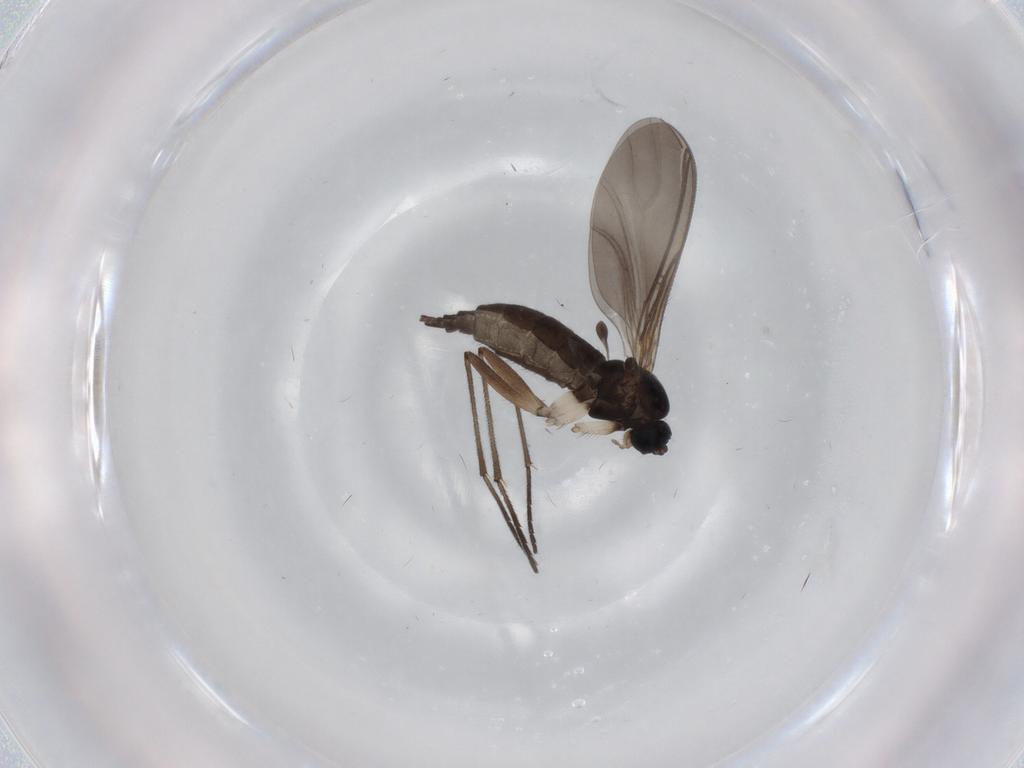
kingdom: Animalia
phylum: Arthropoda
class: Insecta
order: Diptera
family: Sciaridae
